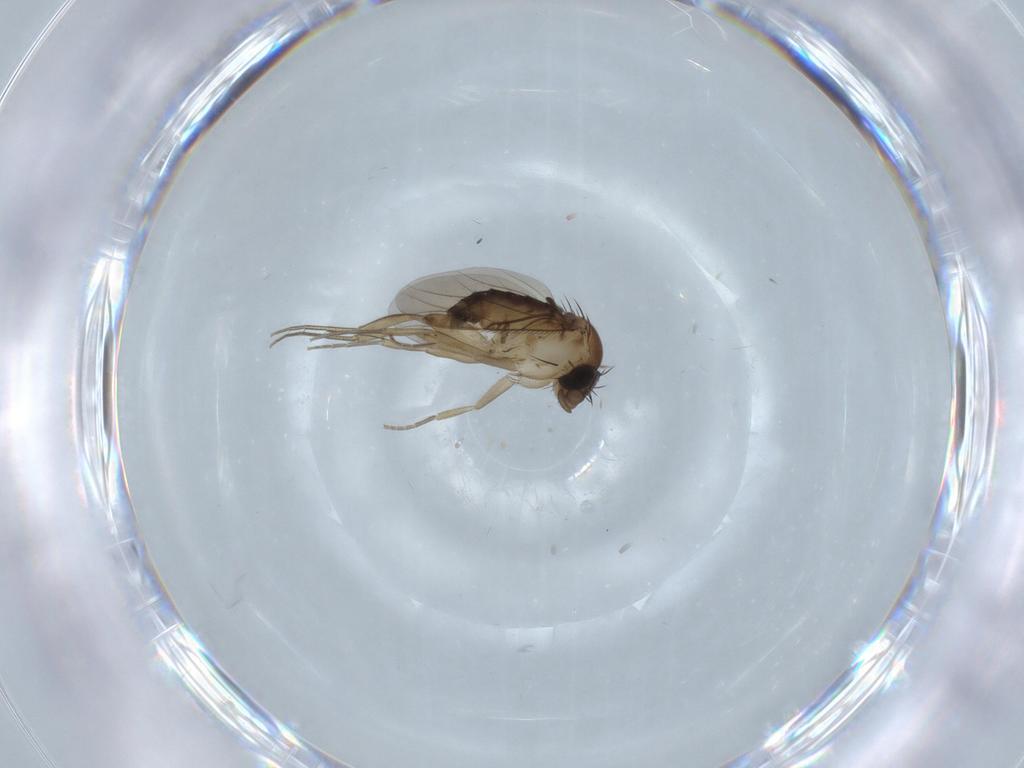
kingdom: Animalia
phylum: Arthropoda
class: Insecta
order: Diptera
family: Phoridae
